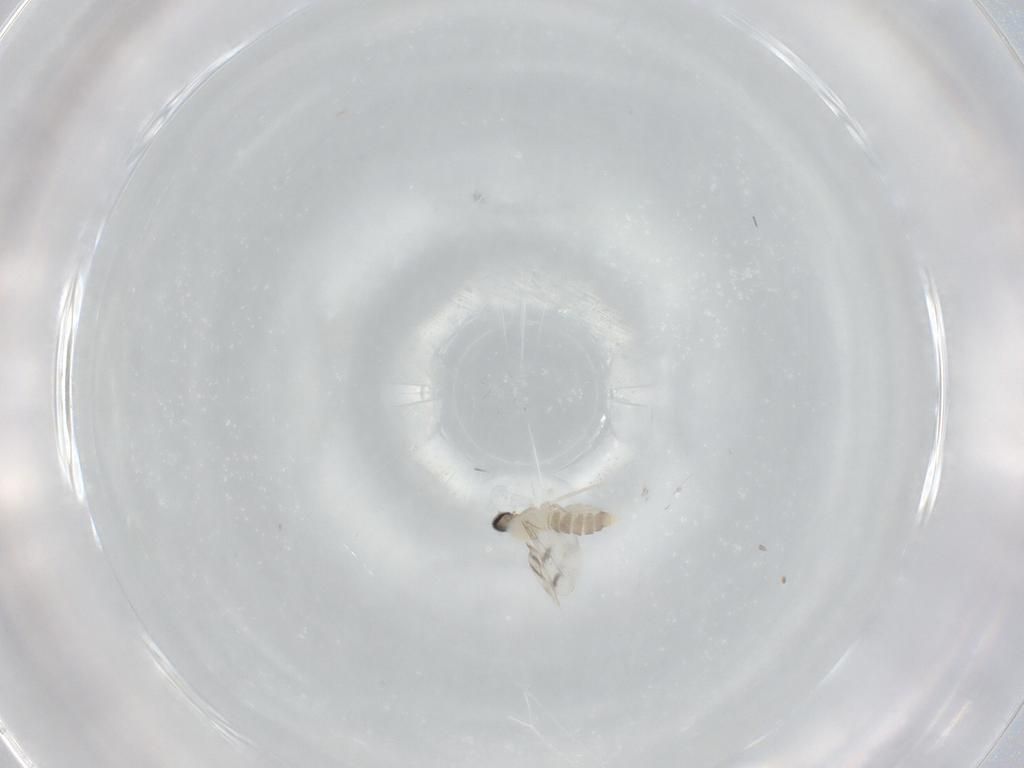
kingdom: Animalia
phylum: Arthropoda
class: Insecta
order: Diptera
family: Cecidomyiidae
